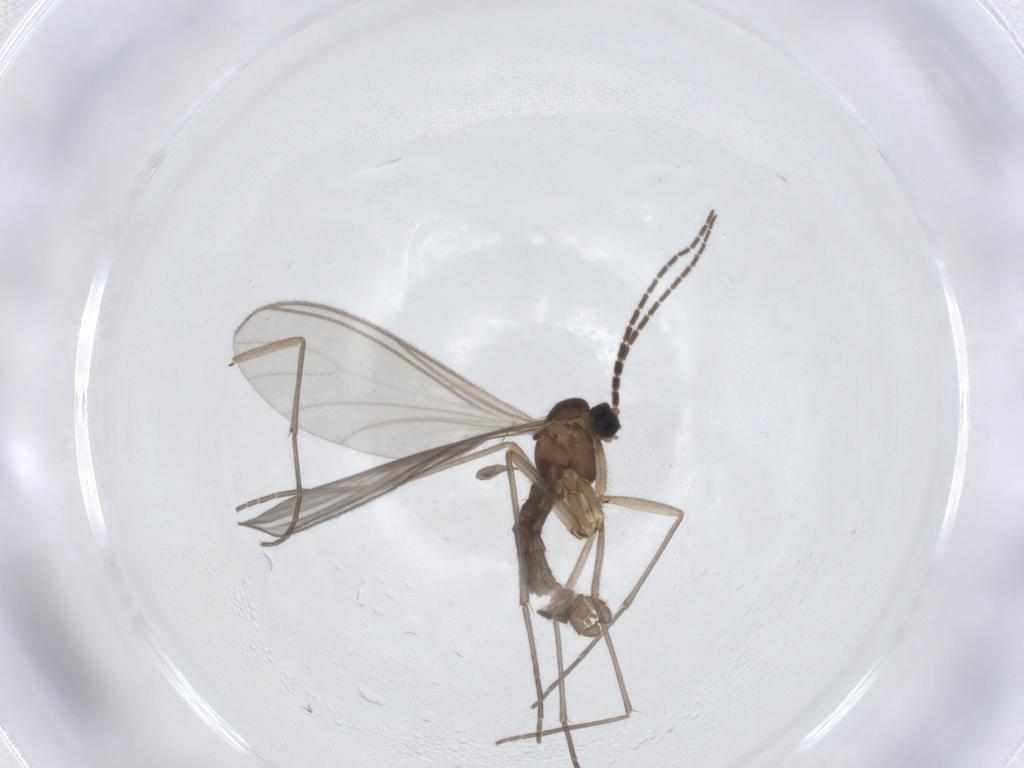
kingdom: Animalia
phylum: Arthropoda
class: Insecta
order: Diptera
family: Sciaridae
